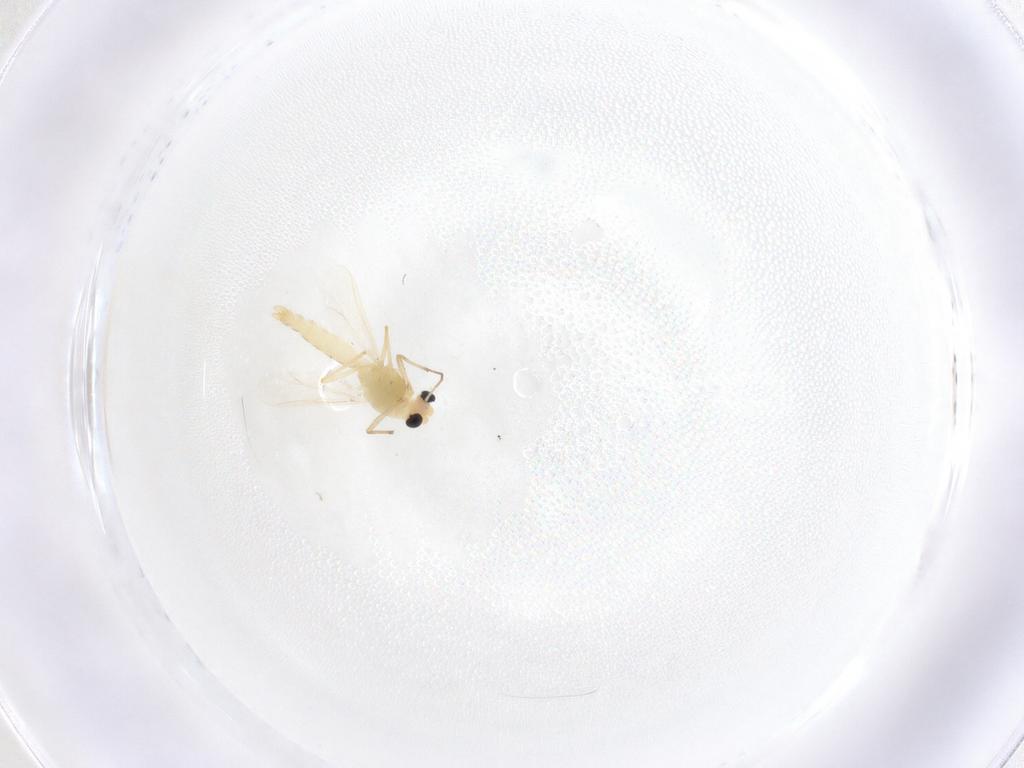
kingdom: Animalia
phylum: Arthropoda
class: Insecta
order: Diptera
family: Chironomidae
